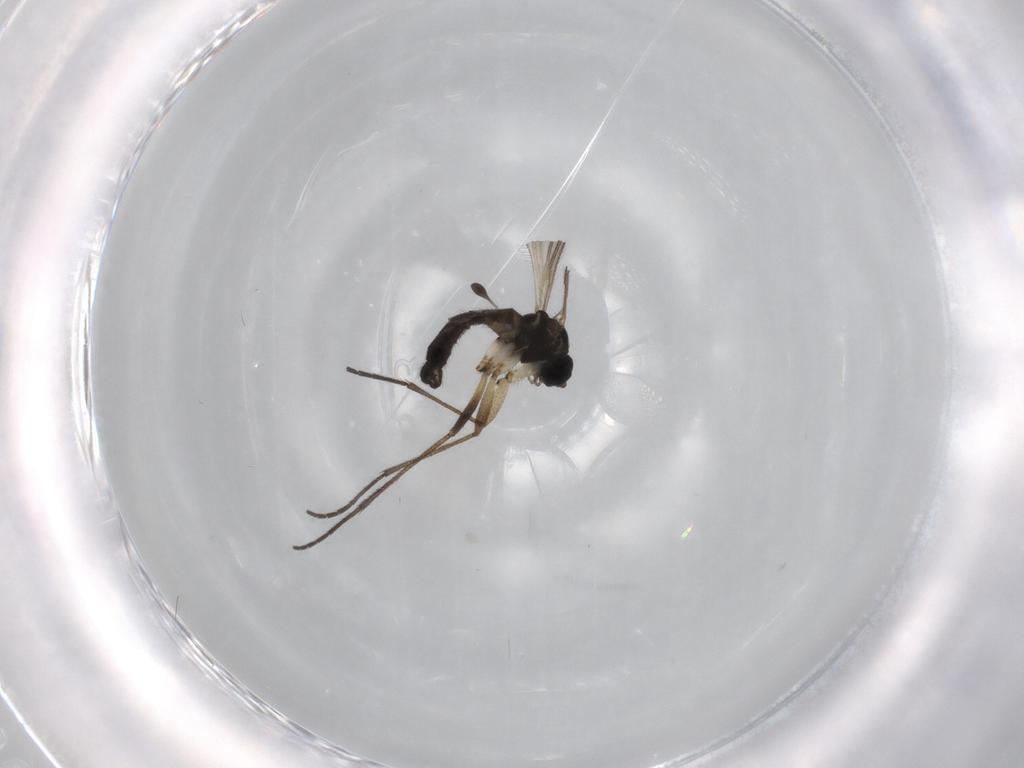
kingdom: Animalia
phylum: Arthropoda
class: Insecta
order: Diptera
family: Sciaridae
